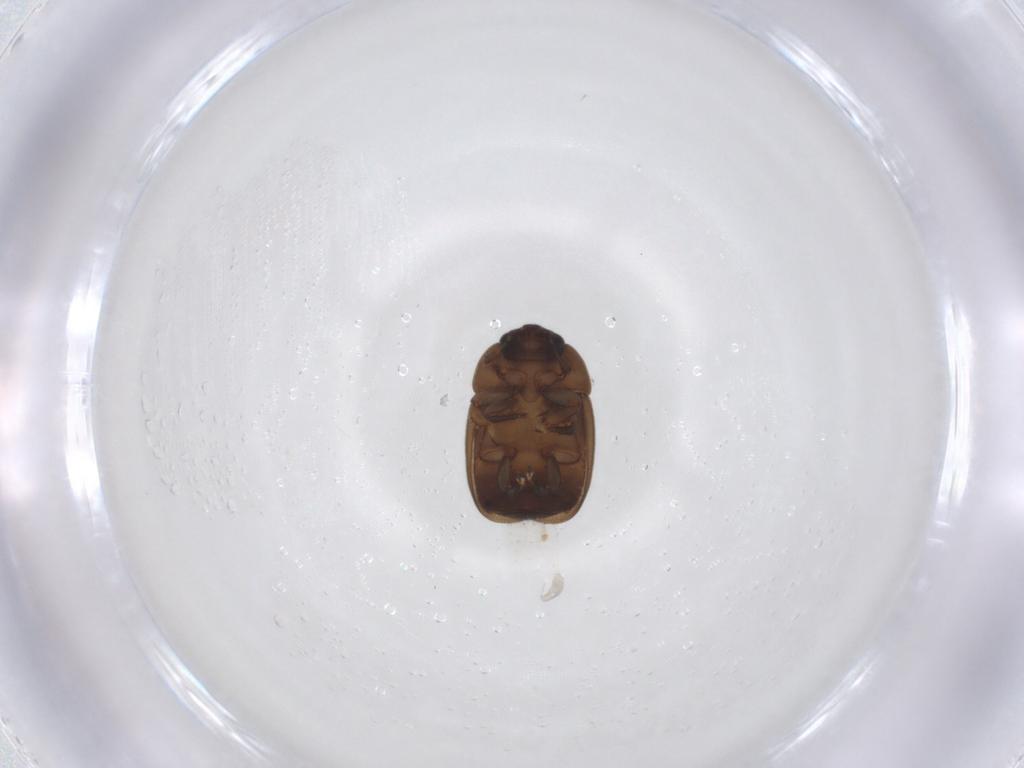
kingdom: Animalia
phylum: Arthropoda
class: Insecta
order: Coleoptera
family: Nitidulidae
